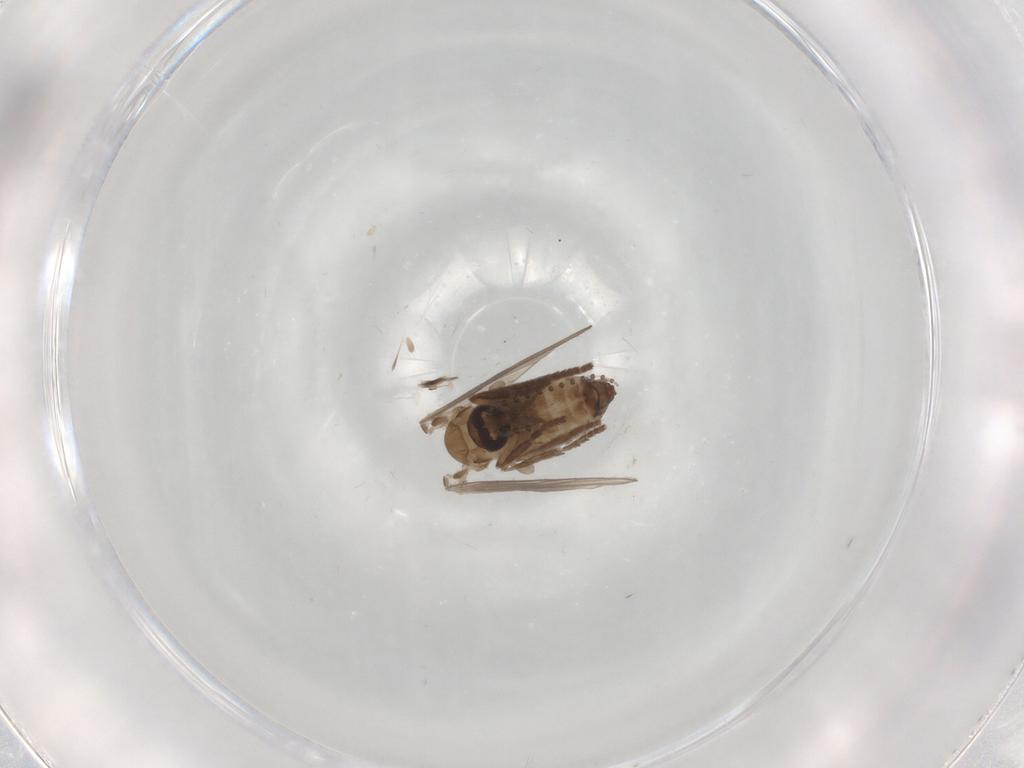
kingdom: Animalia
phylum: Arthropoda
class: Insecta
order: Diptera
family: Psychodidae
